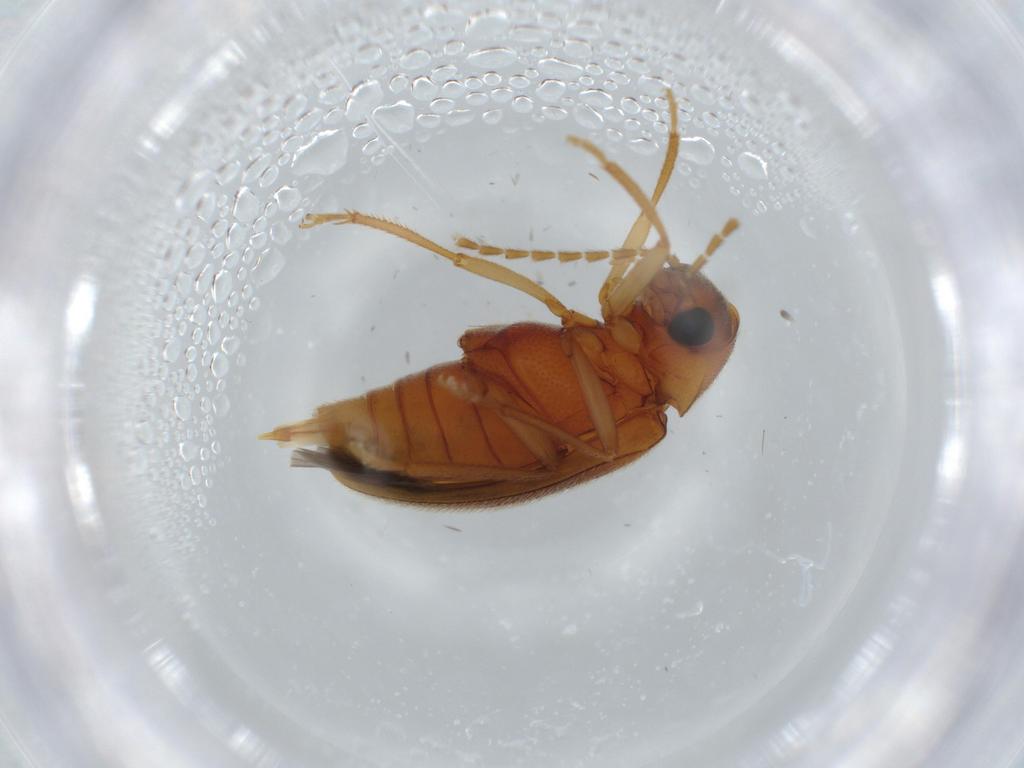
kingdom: Animalia
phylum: Arthropoda
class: Insecta
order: Coleoptera
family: Ptilodactylidae
